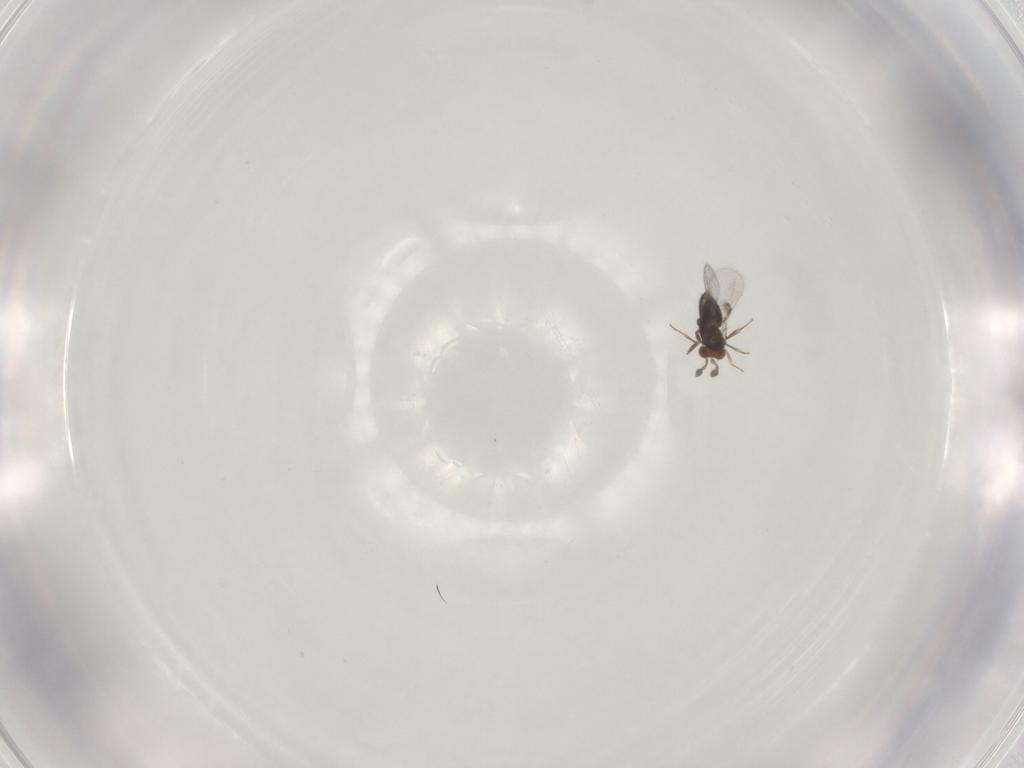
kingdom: Animalia
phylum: Arthropoda
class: Insecta
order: Hymenoptera
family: Trichogrammatidae
